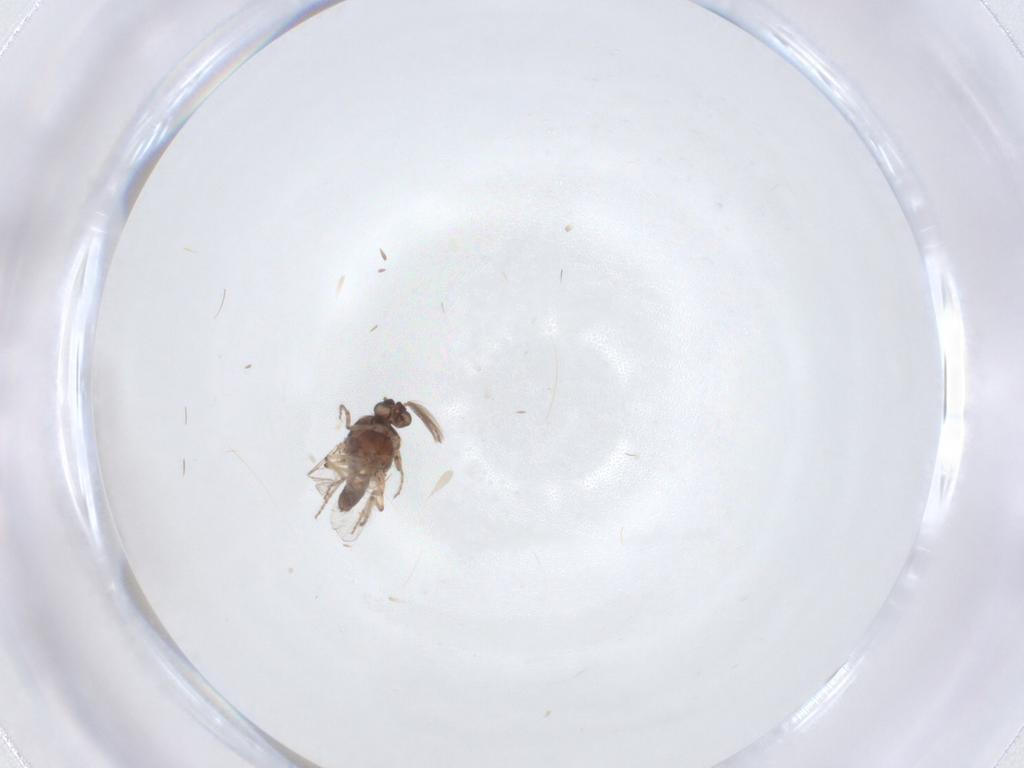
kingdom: Animalia
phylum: Arthropoda
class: Insecta
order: Diptera
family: Ceratopogonidae
